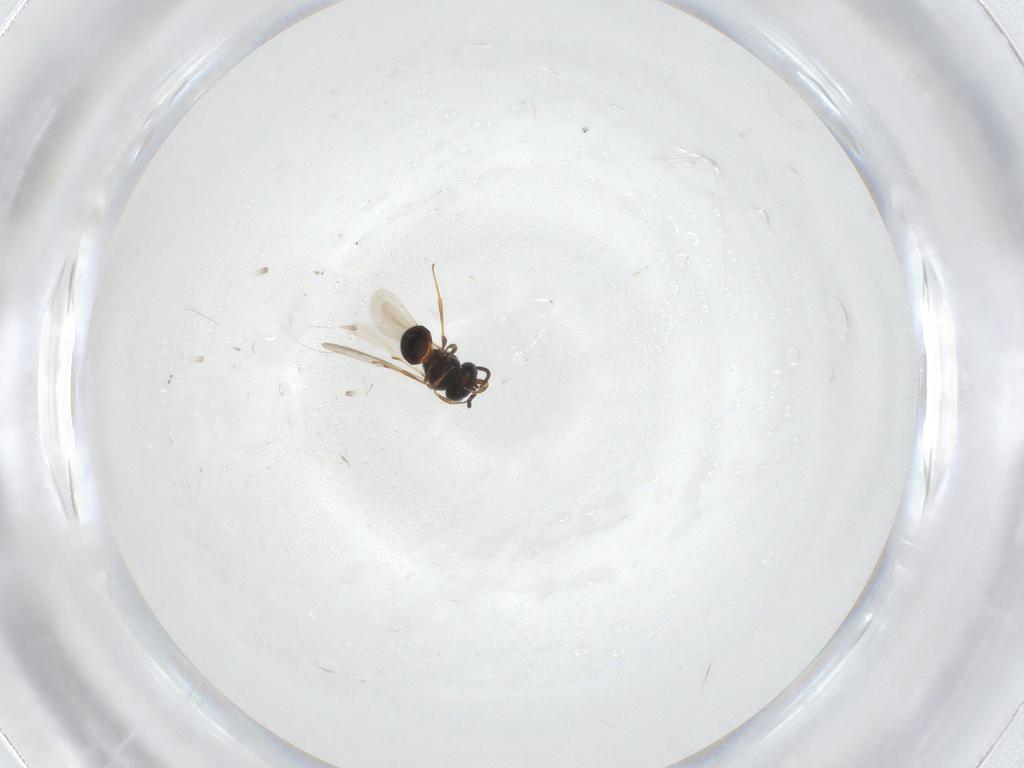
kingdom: Animalia
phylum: Arthropoda
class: Insecta
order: Hymenoptera
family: Scelionidae
